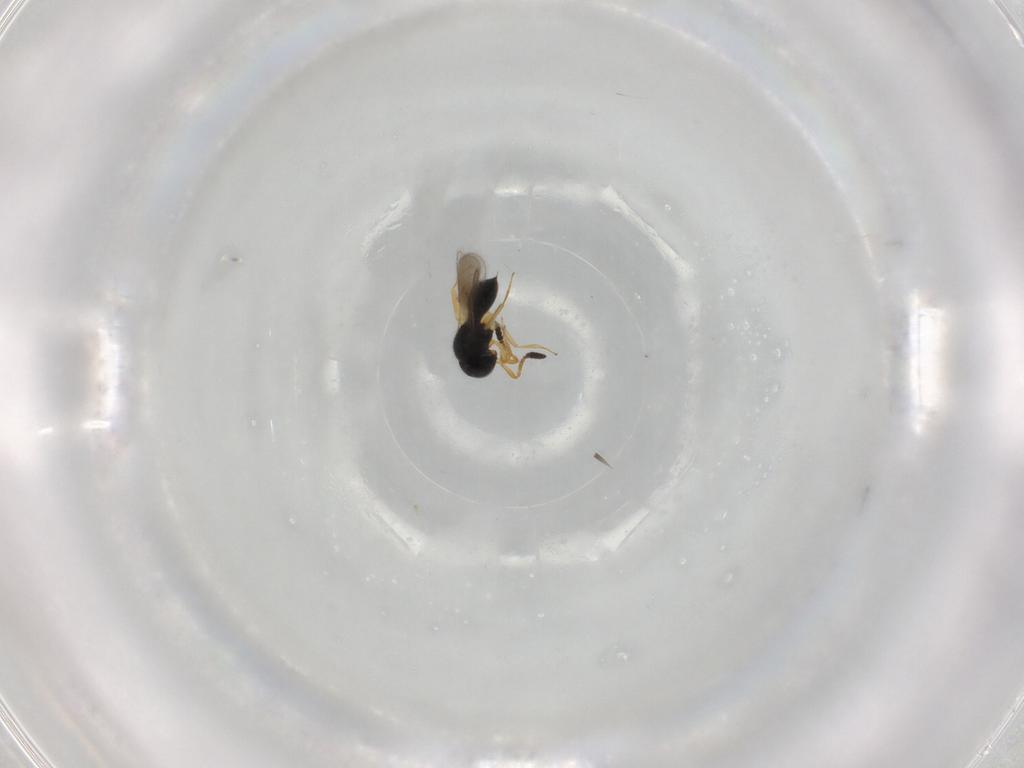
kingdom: Animalia
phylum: Arthropoda
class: Insecta
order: Hymenoptera
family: Scelionidae
